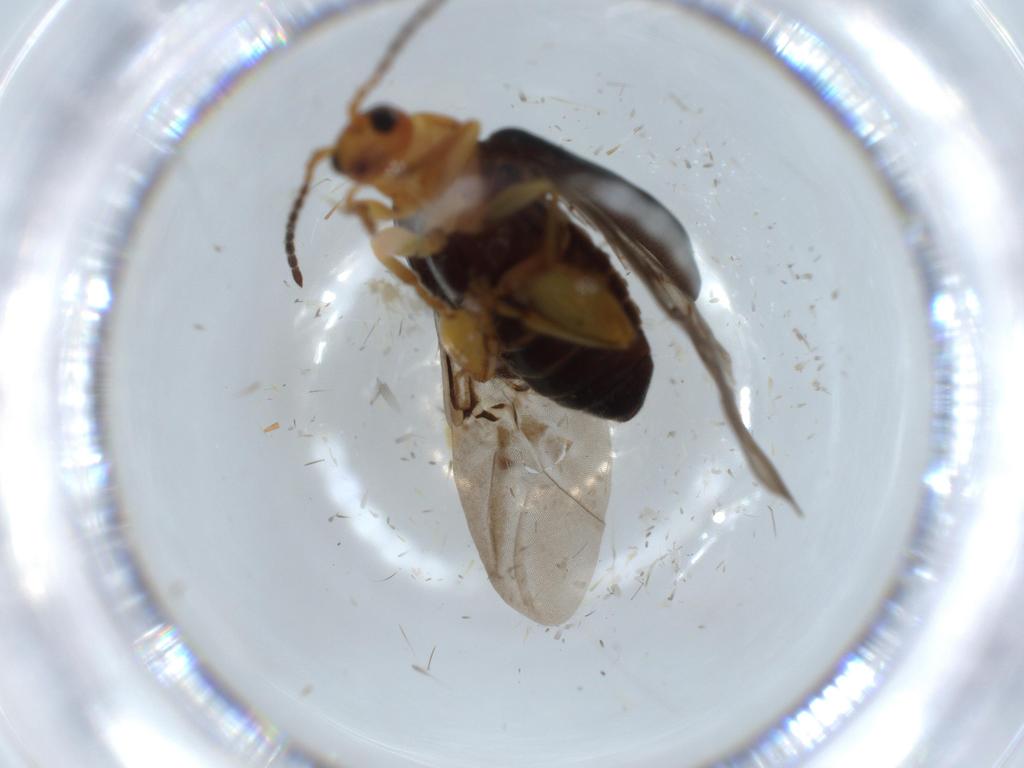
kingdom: Animalia
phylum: Arthropoda
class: Insecta
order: Coleoptera
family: Chrysomelidae
